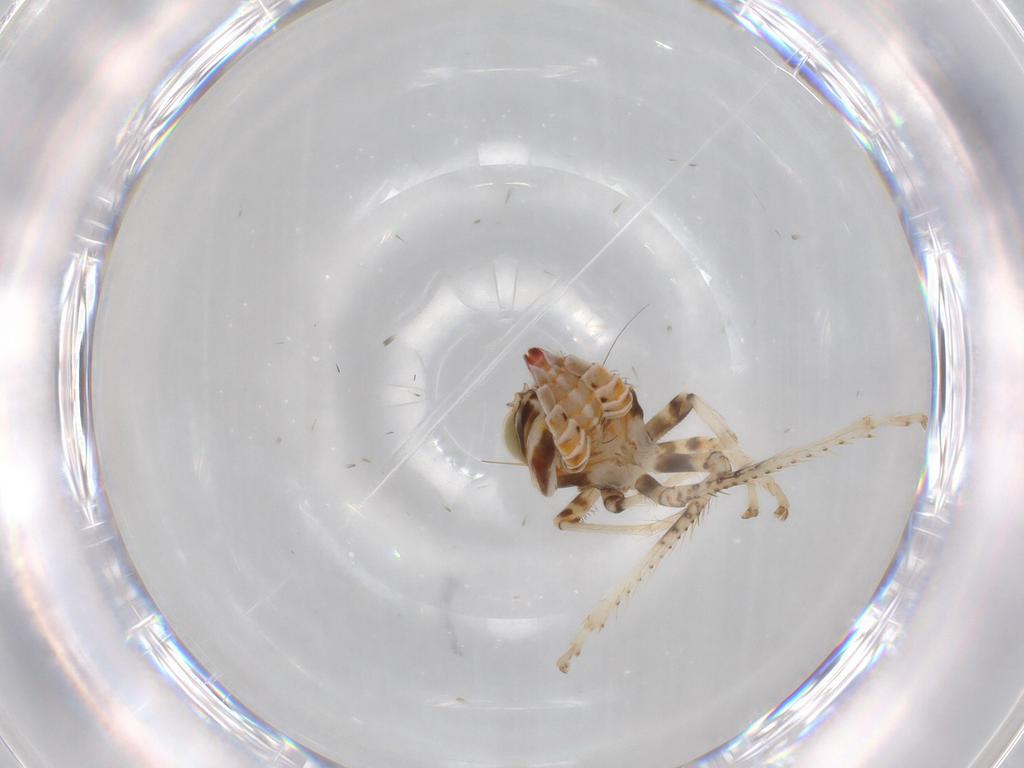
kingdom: Animalia
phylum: Arthropoda
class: Insecta
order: Hemiptera
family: Cicadellidae
